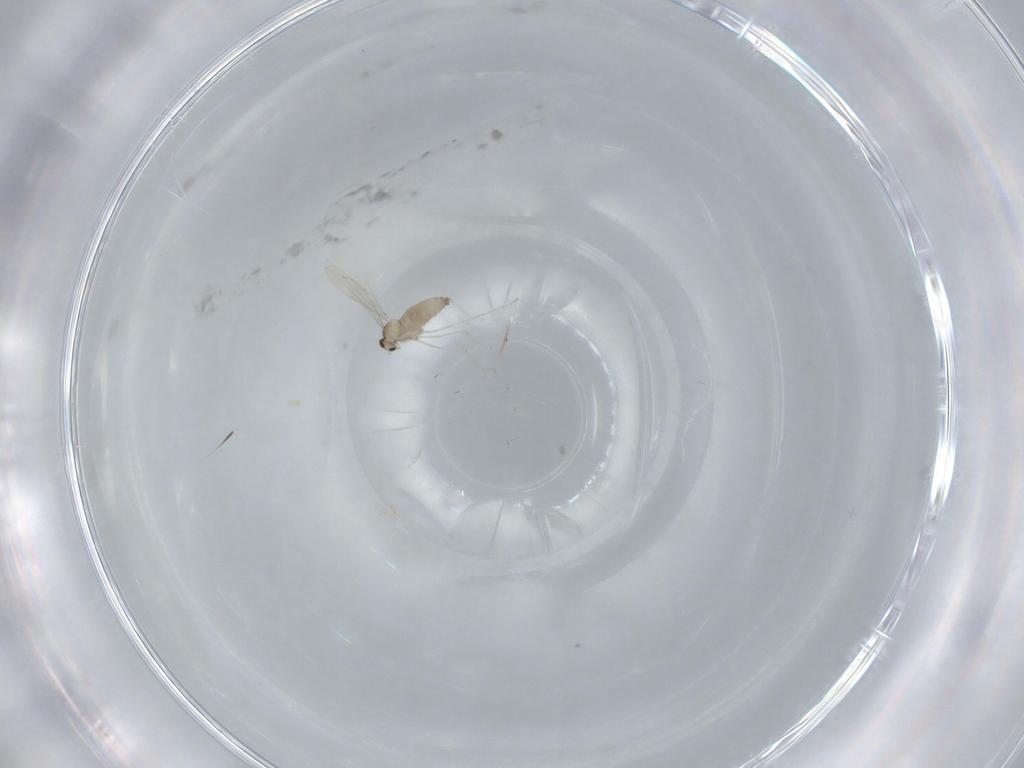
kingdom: Animalia
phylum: Arthropoda
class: Insecta
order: Diptera
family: Cecidomyiidae
